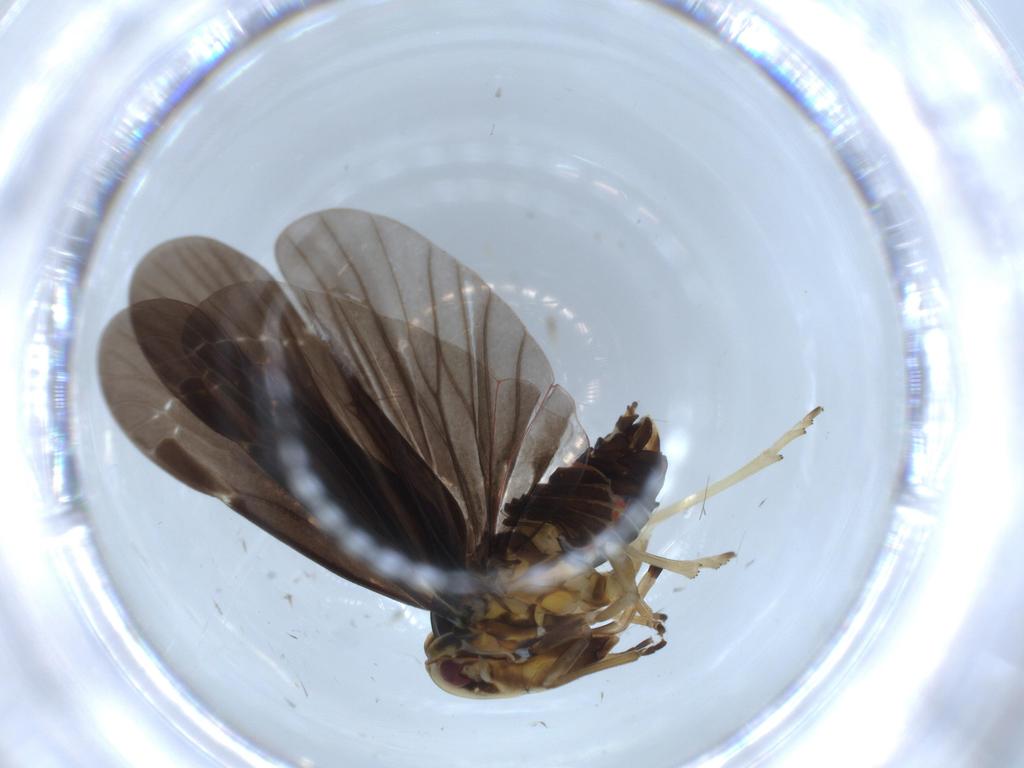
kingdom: Animalia
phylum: Arthropoda
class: Insecta
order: Hemiptera
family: Derbidae
